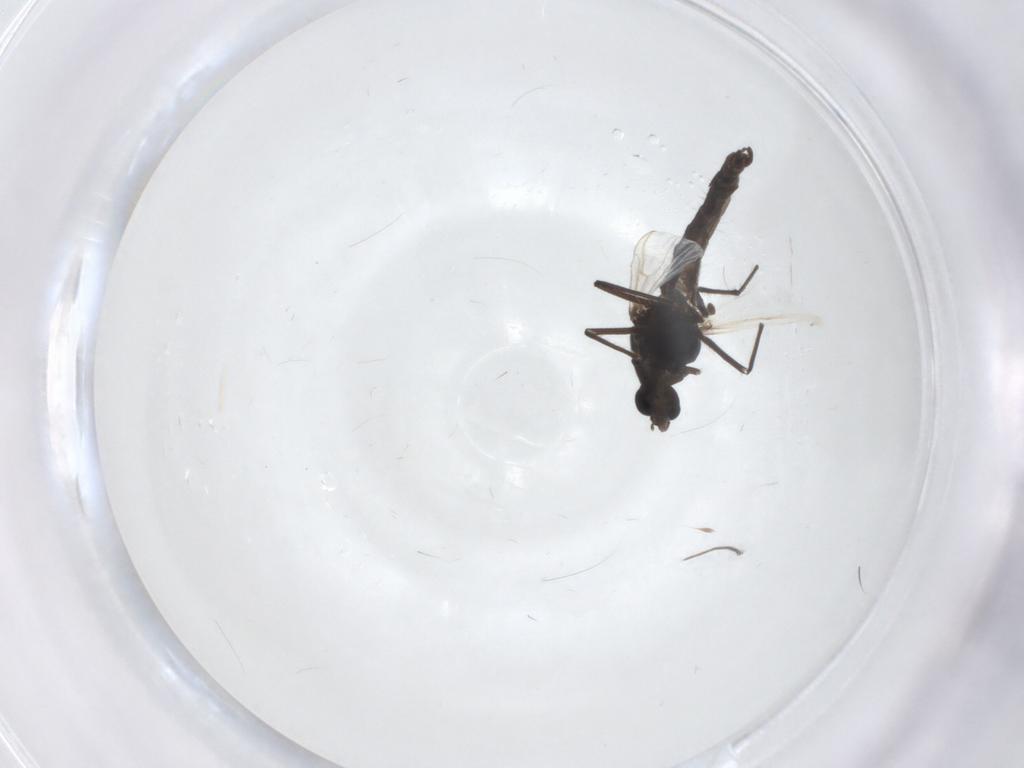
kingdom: Animalia
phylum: Arthropoda
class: Insecta
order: Diptera
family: Chironomidae
